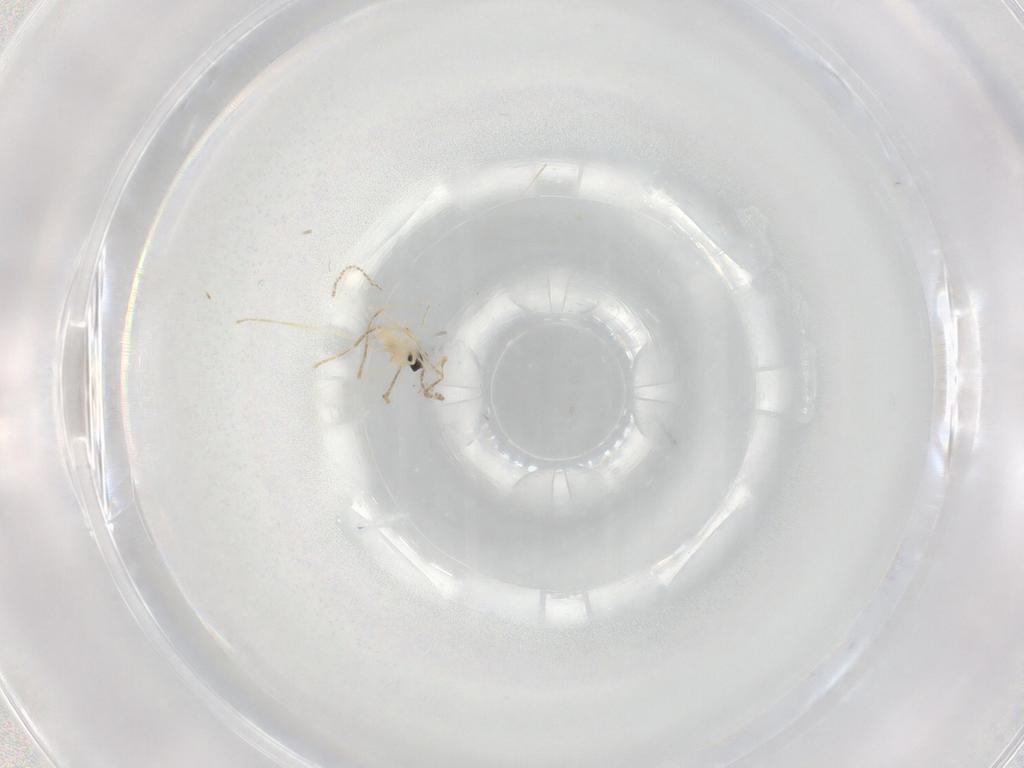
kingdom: Animalia
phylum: Arthropoda
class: Insecta
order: Diptera
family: Cecidomyiidae
